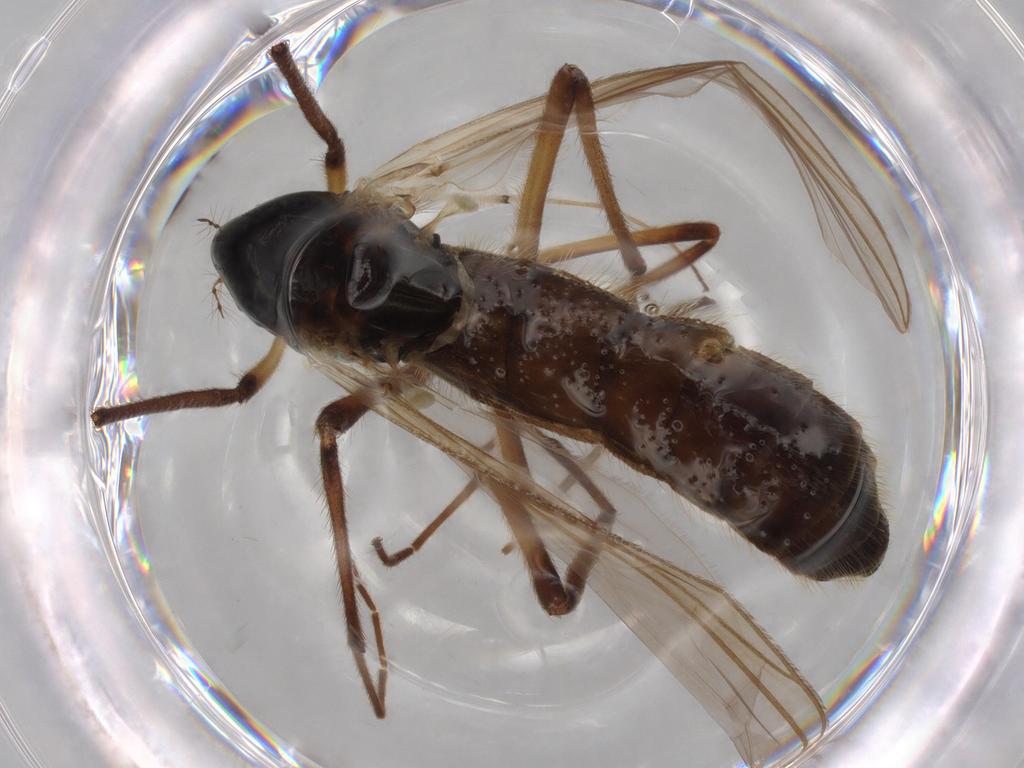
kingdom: Animalia
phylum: Arthropoda
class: Insecta
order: Diptera
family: Chironomidae
